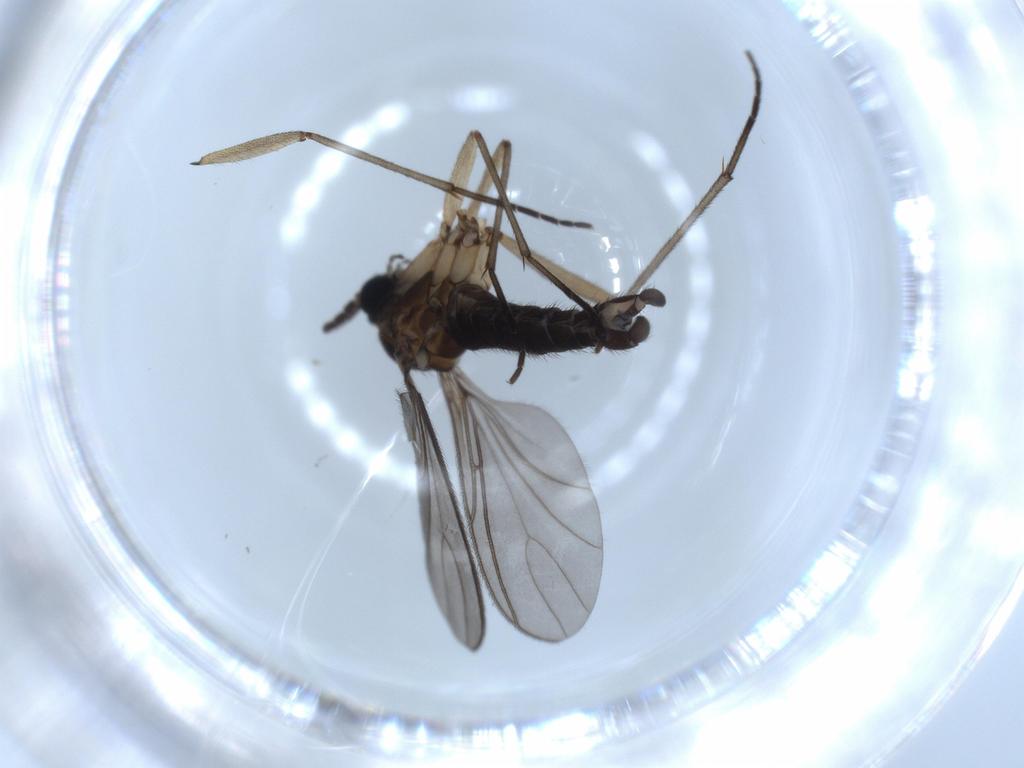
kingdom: Animalia
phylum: Arthropoda
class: Insecta
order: Diptera
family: Sciaridae
